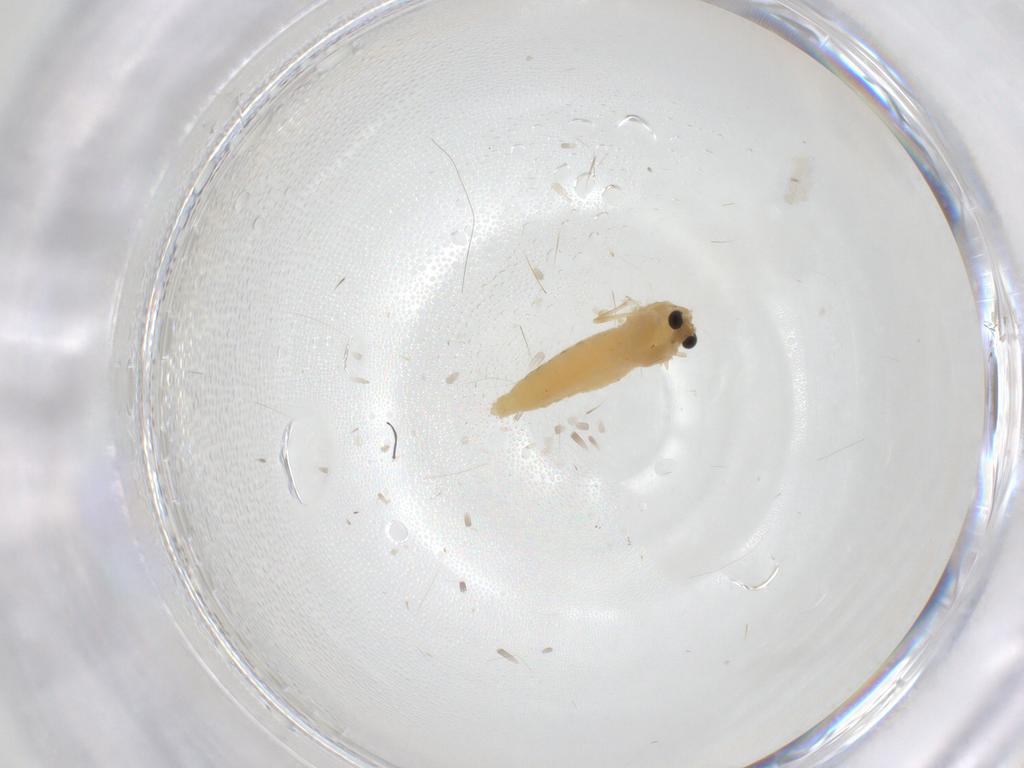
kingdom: Animalia
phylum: Arthropoda
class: Insecta
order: Diptera
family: Chironomidae
